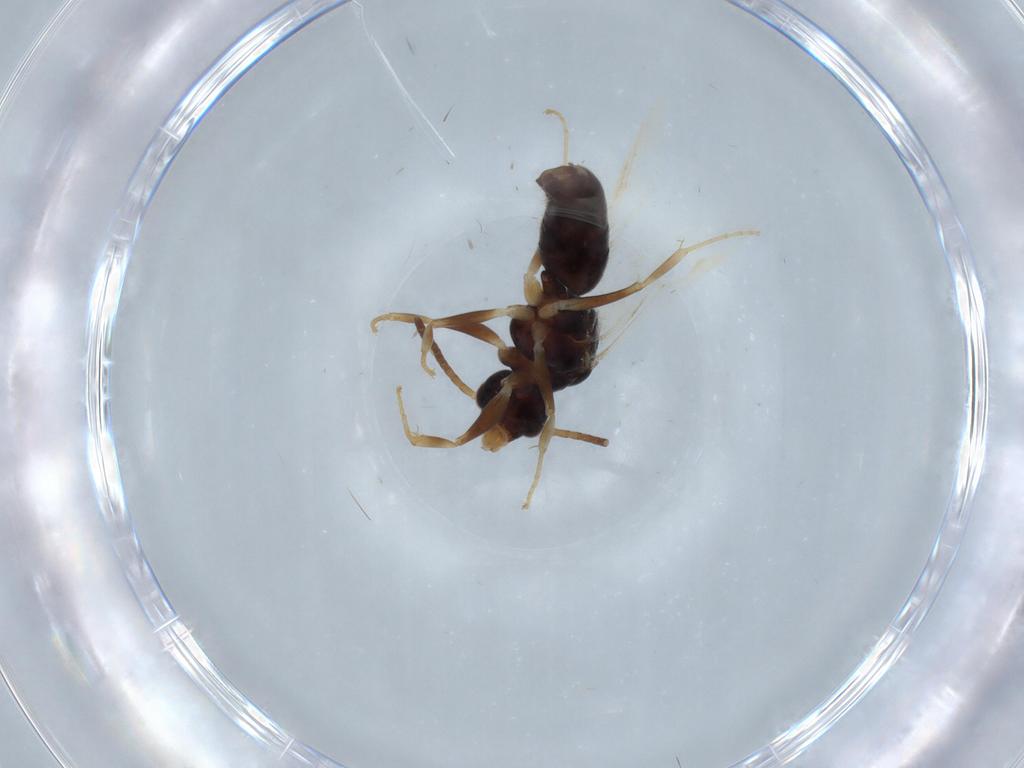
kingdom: Animalia
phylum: Arthropoda
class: Insecta
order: Hymenoptera
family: Formicidae
